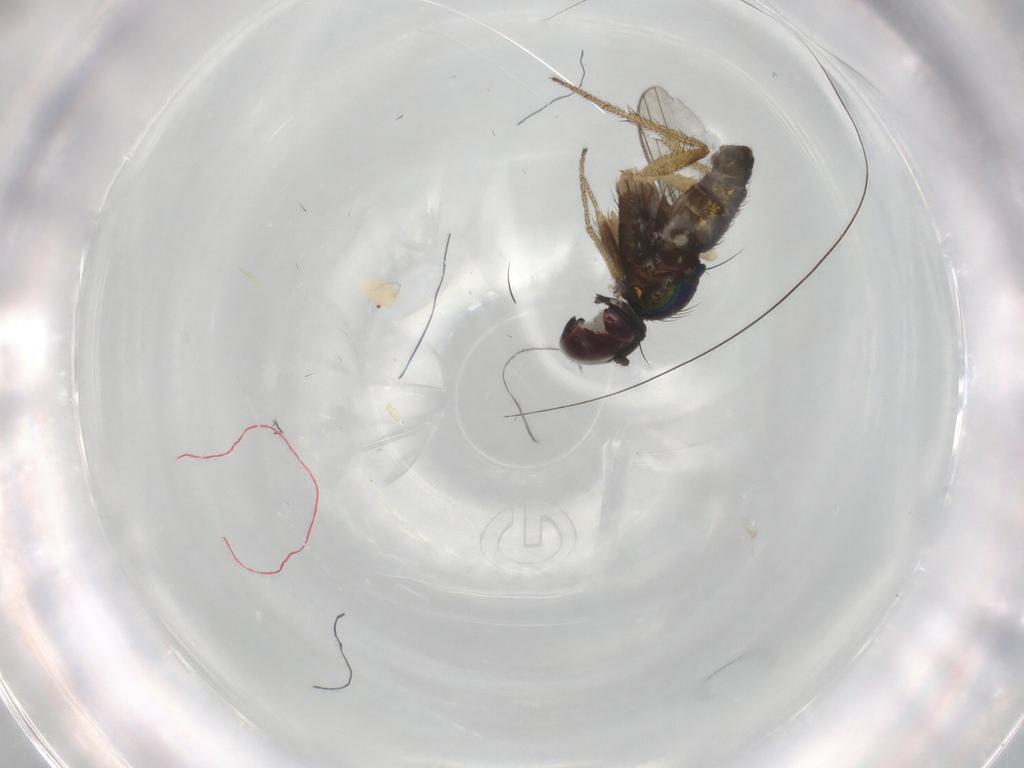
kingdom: Animalia
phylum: Arthropoda
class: Insecta
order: Diptera
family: Dolichopodidae
